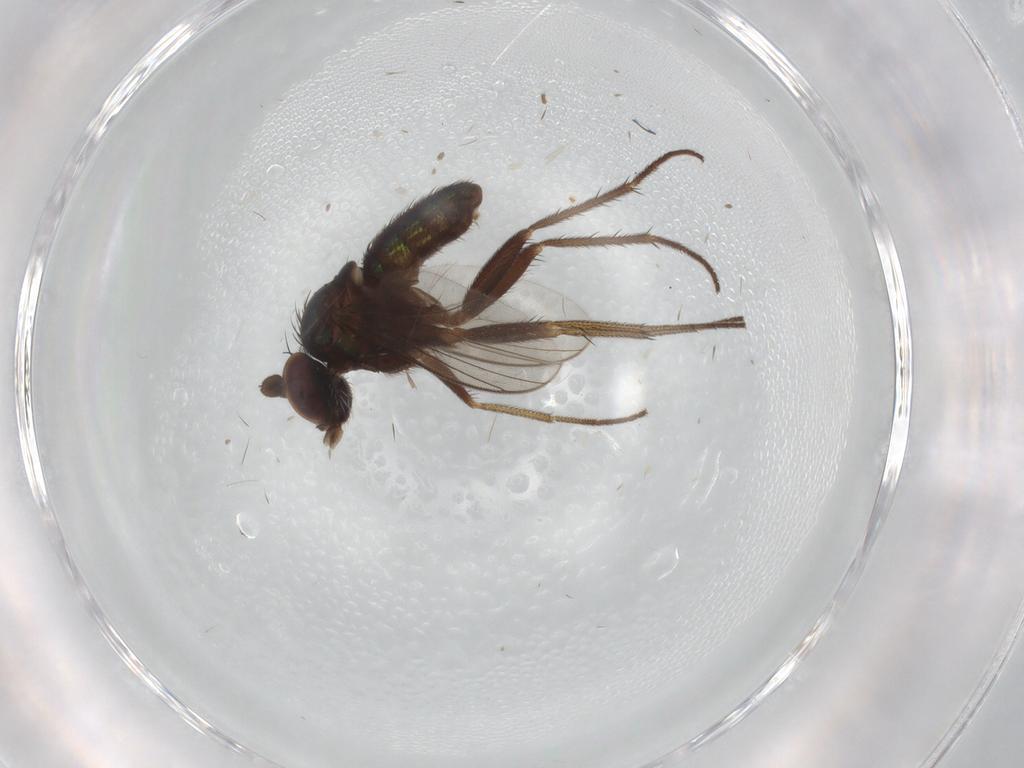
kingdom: Animalia
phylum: Arthropoda
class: Insecta
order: Diptera
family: Dolichopodidae
